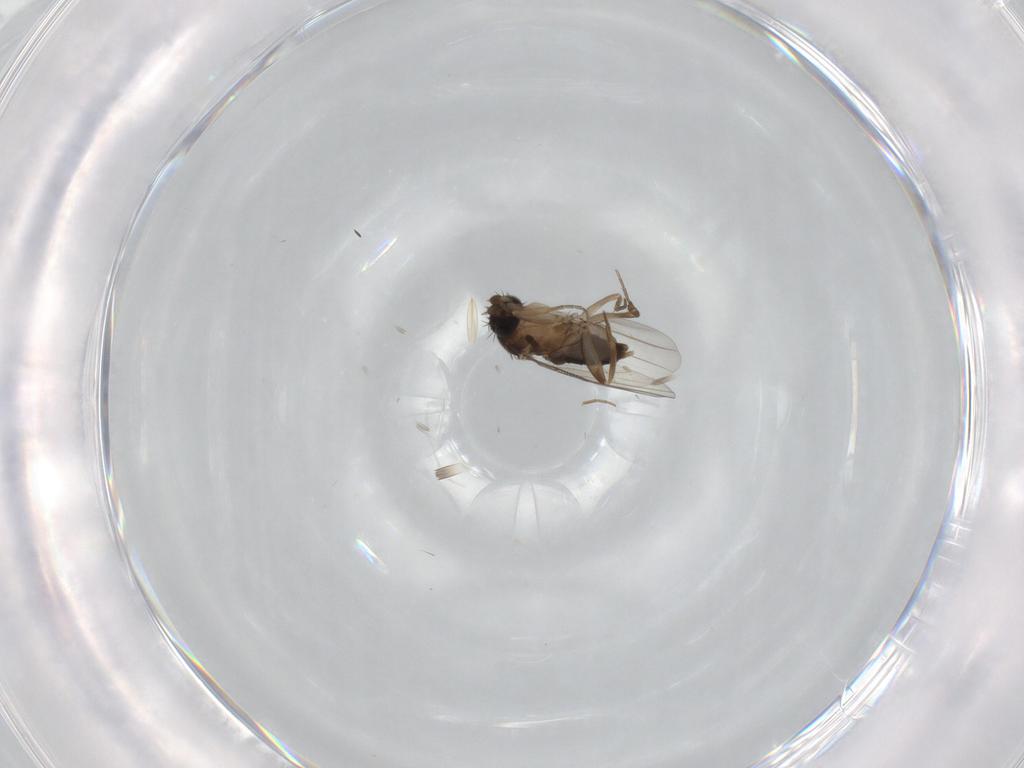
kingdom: Animalia
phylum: Arthropoda
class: Insecta
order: Diptera
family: Phoridae
